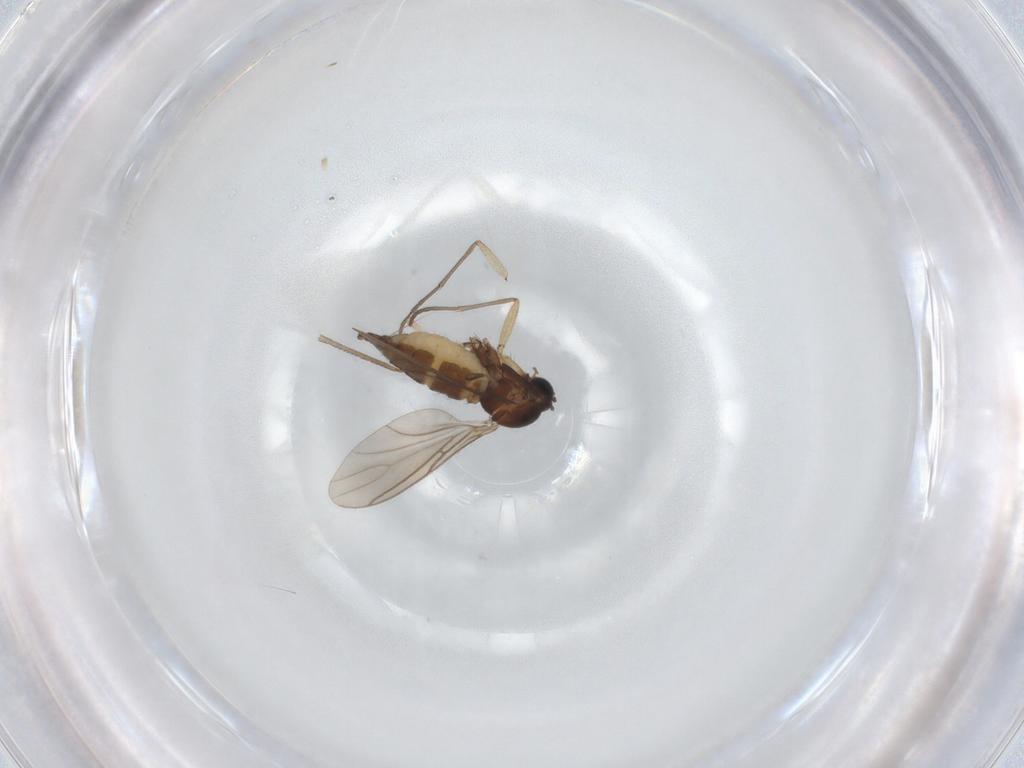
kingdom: Animalia
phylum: Arthropoda
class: Insecta
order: Diptera
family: Sciaridae
